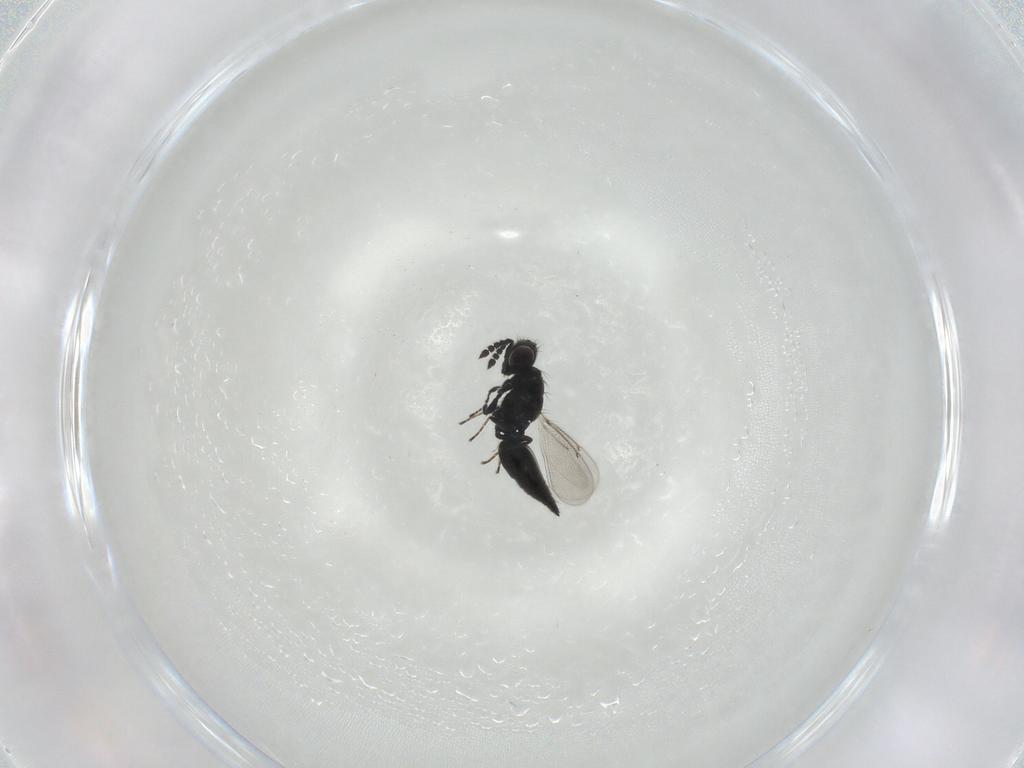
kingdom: Animalia
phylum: Arthropoda
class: Insecta
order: Hymenoptera
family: Eulophidae
